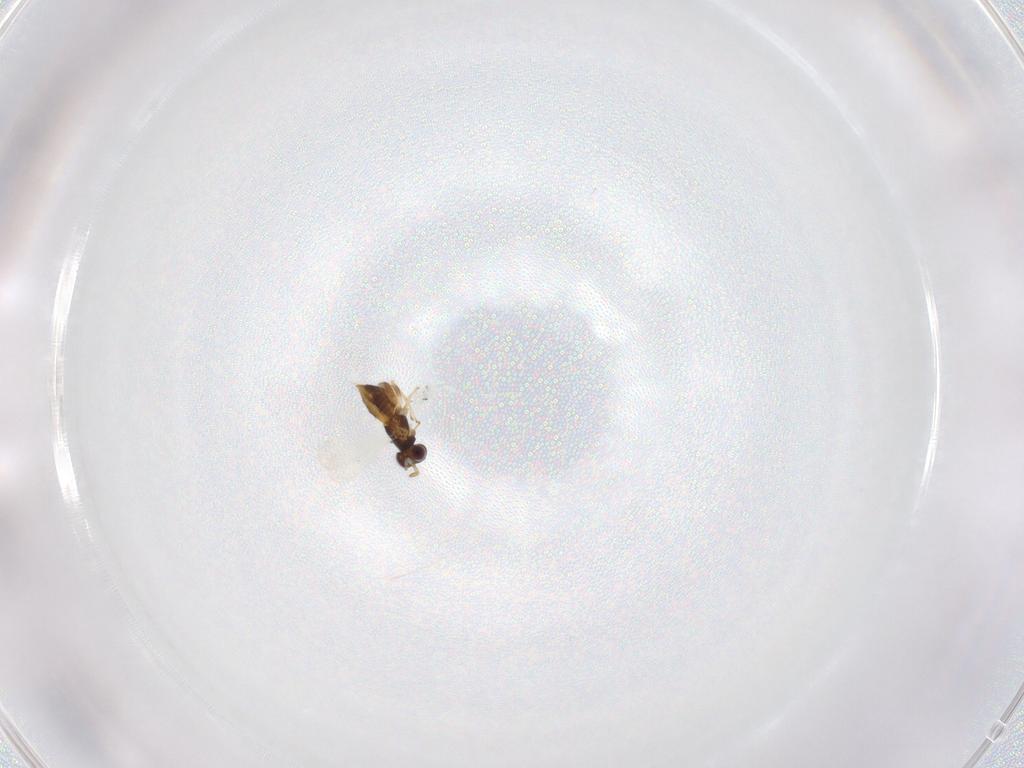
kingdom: Animalia
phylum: Arthropoda
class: Insecta
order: Hymenoptera
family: Aphelinidae
